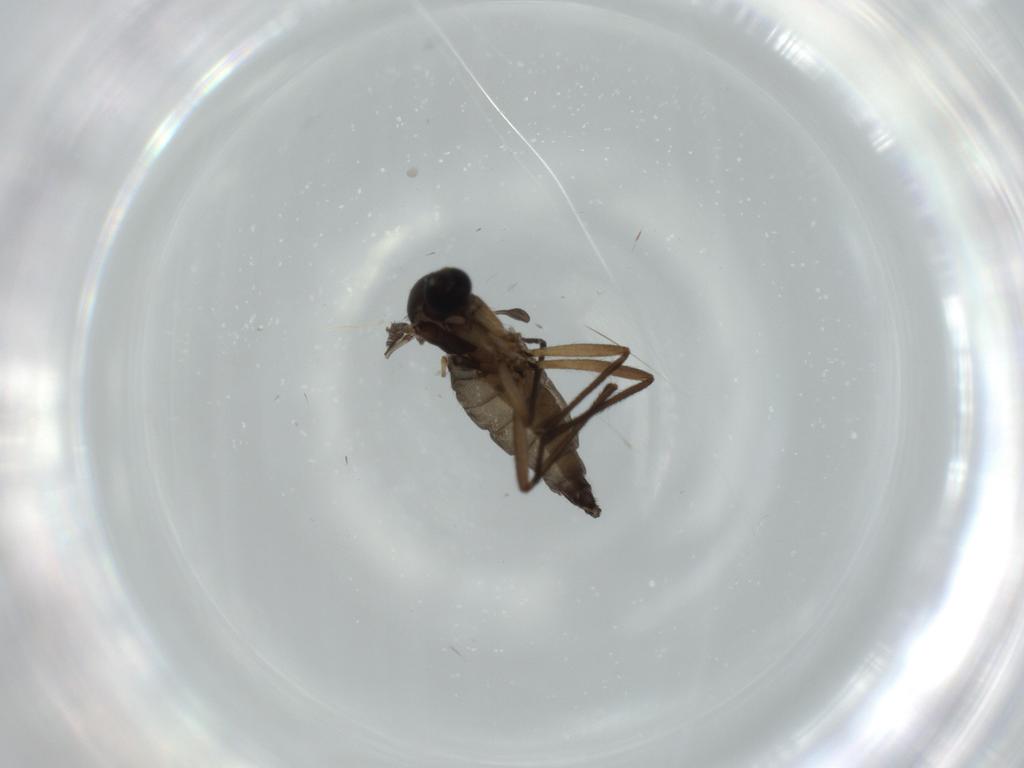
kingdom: Animalia
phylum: Arthropoda
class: Insecta
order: Diptera
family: Sciaridae
